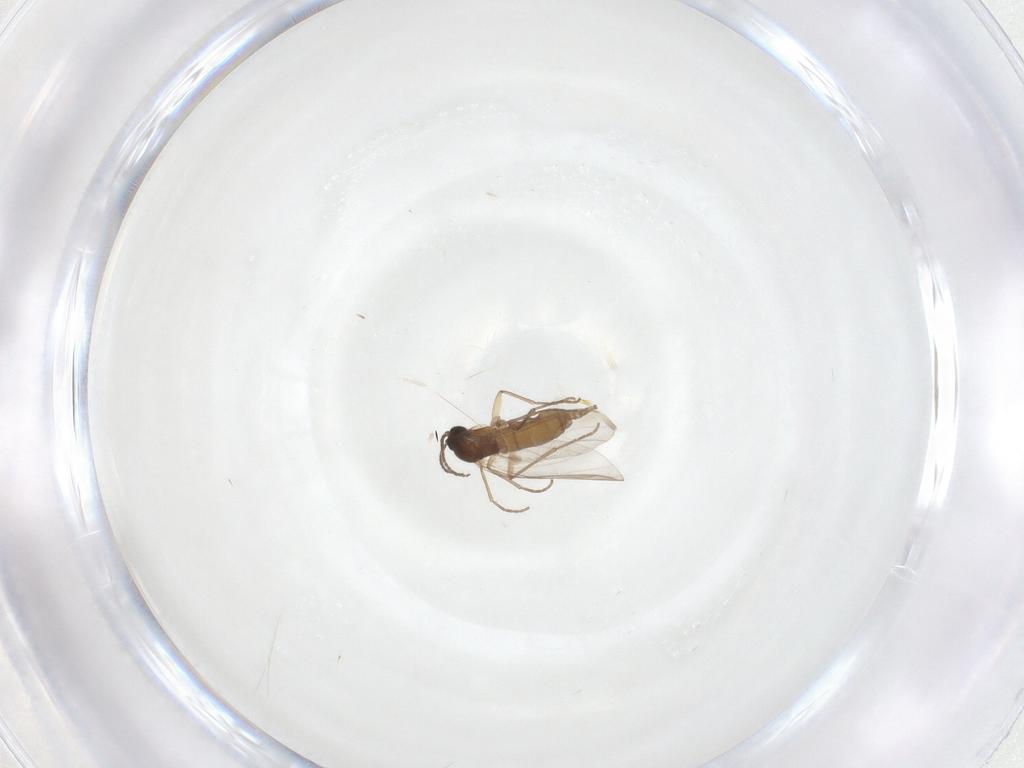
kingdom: Animalia
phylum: Arthropoda
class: Insecta
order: Diptera
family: Sciaridae
